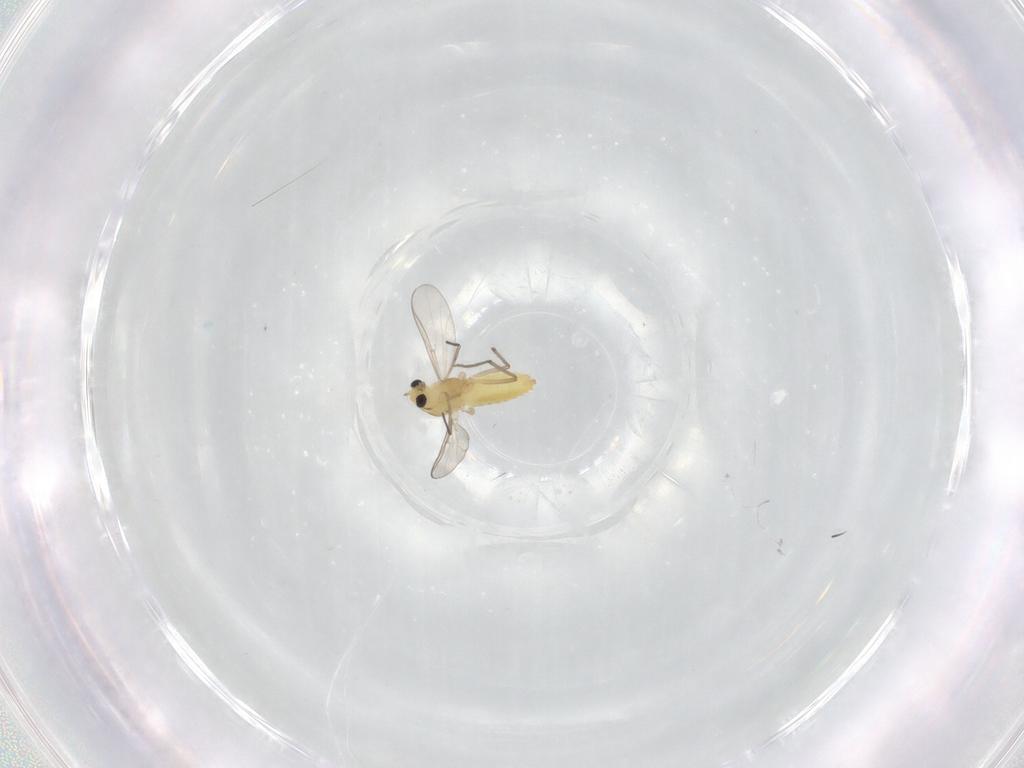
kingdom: Animalia
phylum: Arthropoda
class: Insecta
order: Diptera
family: Chironomidae
